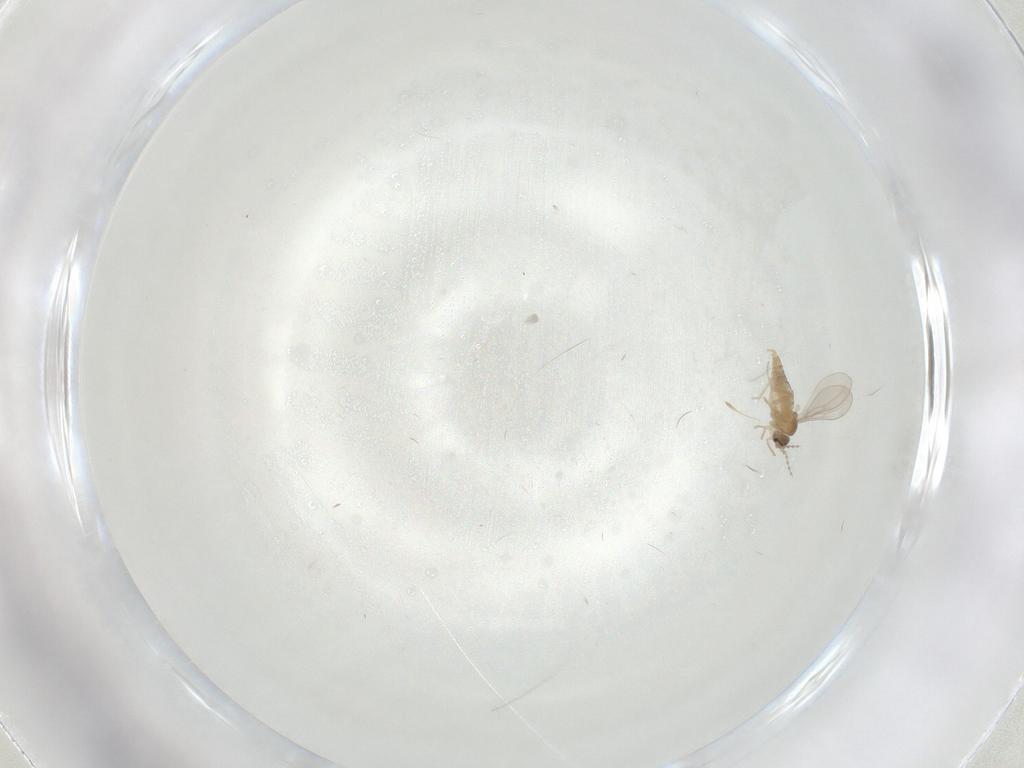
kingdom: Animalia
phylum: Arthropoda
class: Insecta
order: Diptera
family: Cecidomyiidae
